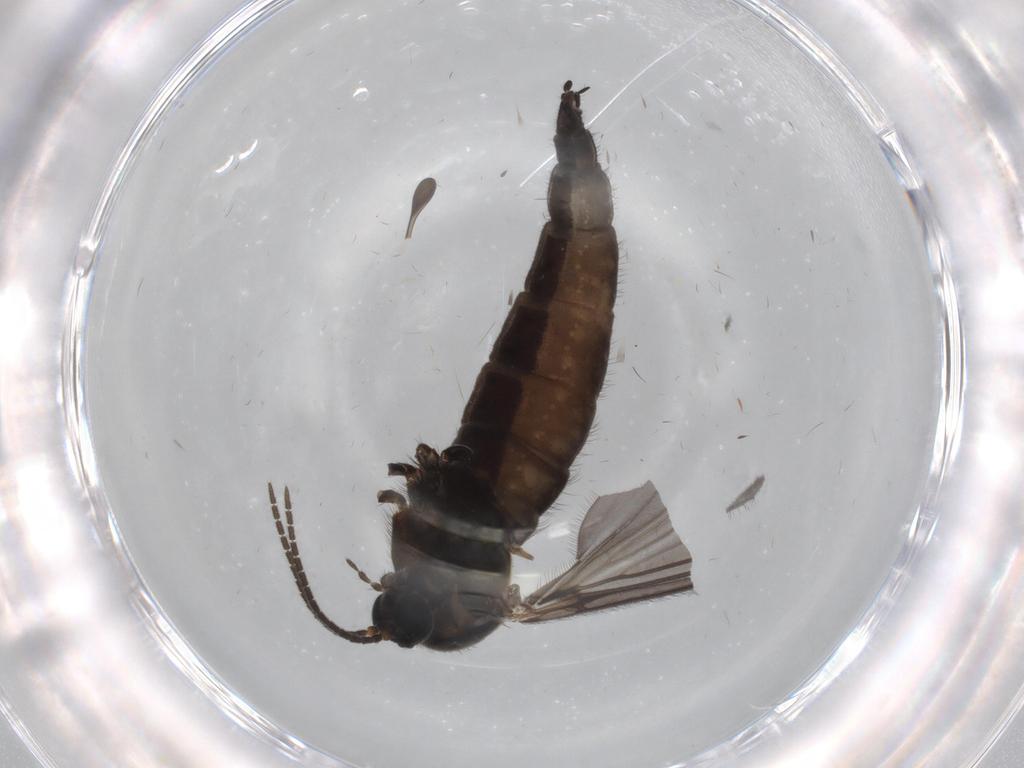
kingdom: Animalia
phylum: Arthropoda
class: Insecta
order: Diptera
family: Sciaridae
